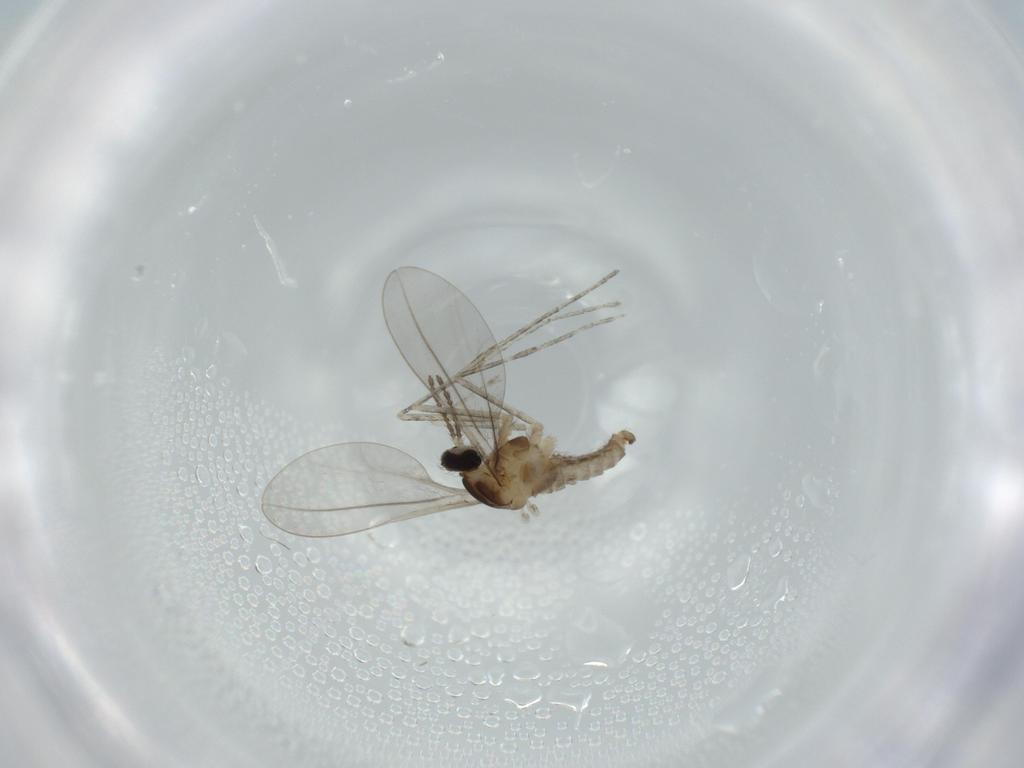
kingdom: Animalia
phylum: Arthropoda
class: Insecta
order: Diptera
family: Cecidomyiidae
